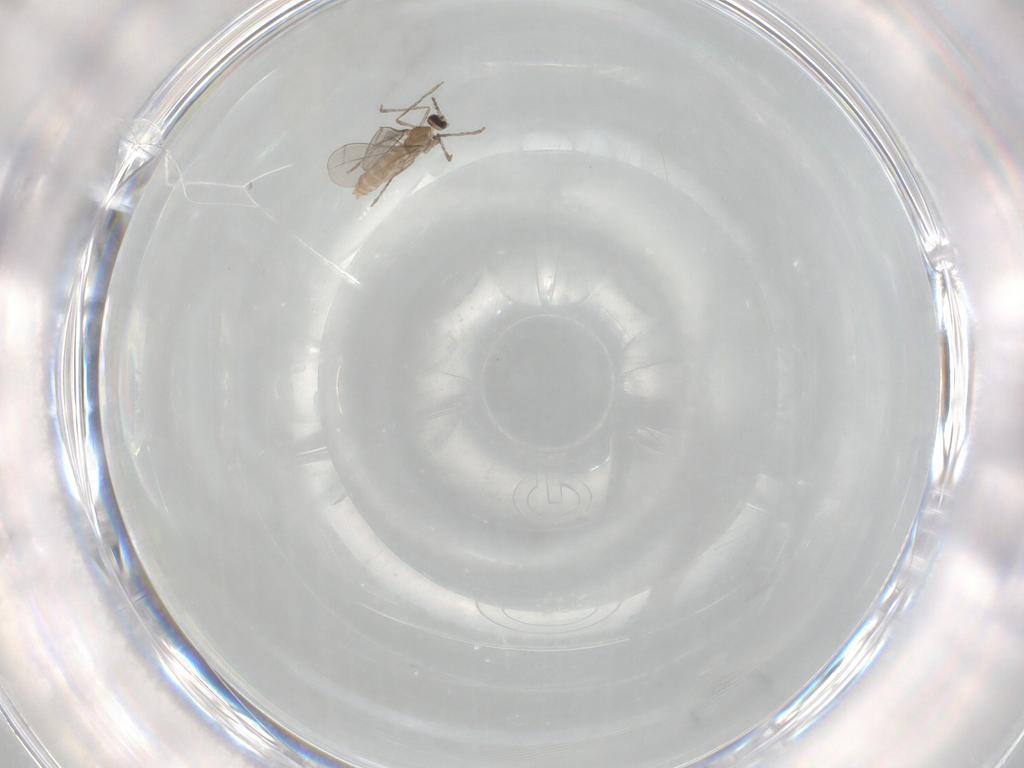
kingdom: Animalia
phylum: Arthropoda
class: Insecta
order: Diptera
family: Cecidomyiidae
